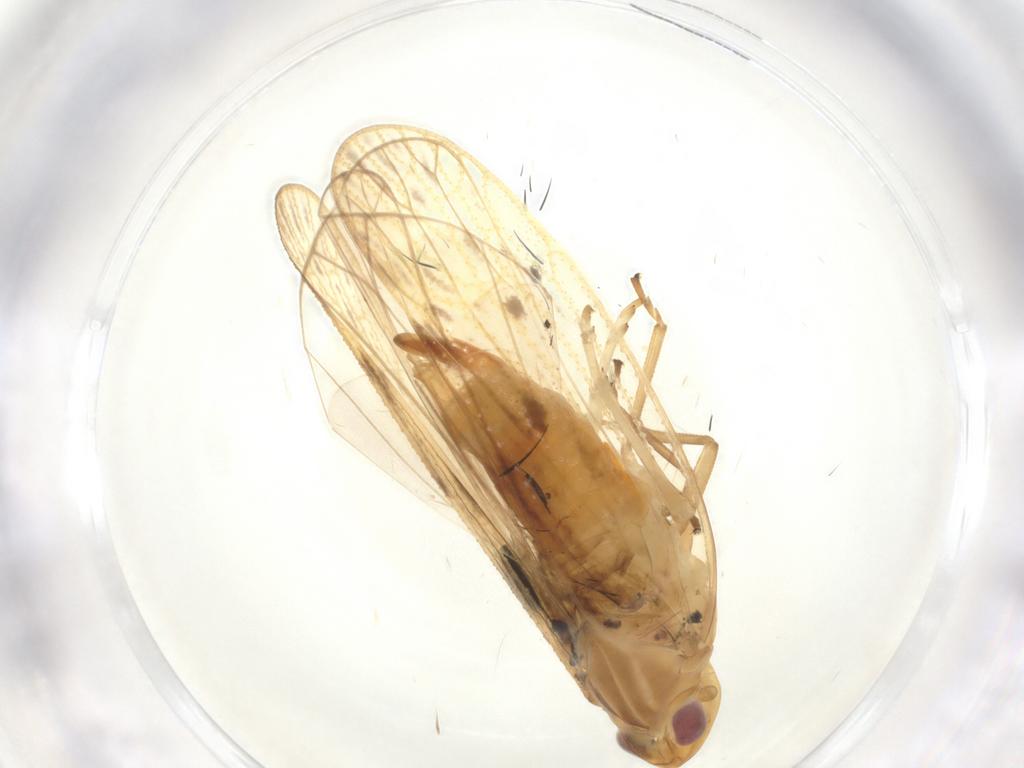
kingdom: Animalia
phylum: Arthropoda
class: Insecta
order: Hemiptera
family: Cixiidae
